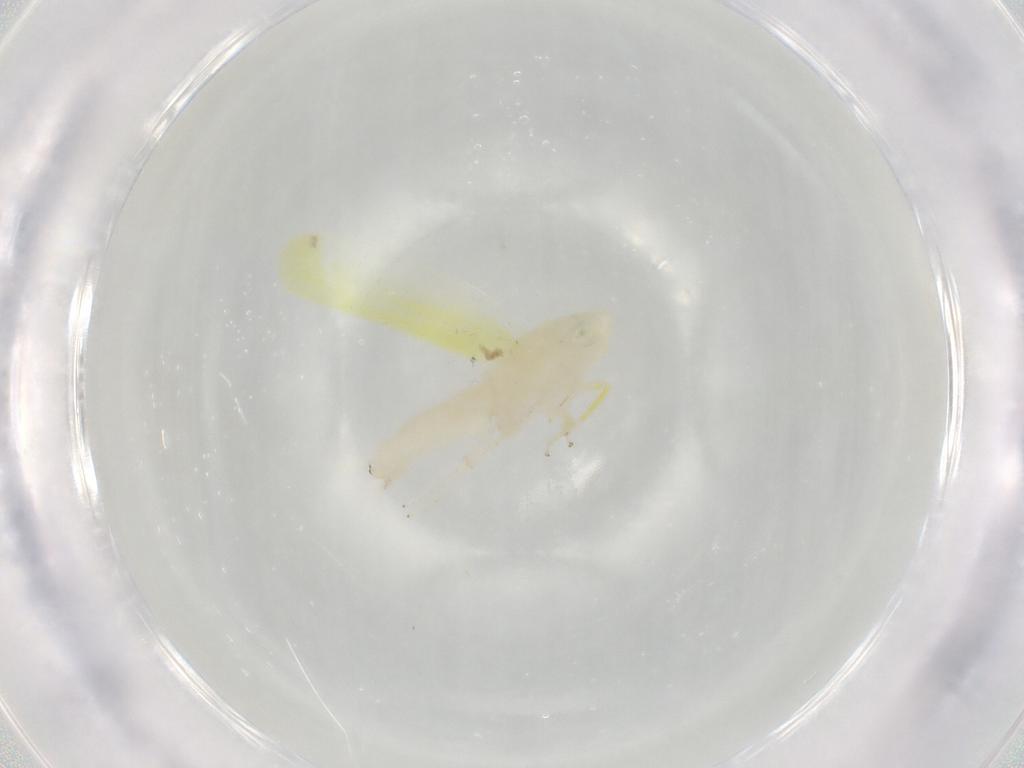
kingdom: Animalia
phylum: Arthropoda
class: Insecta
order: Hemiptera
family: Cicadellidae
